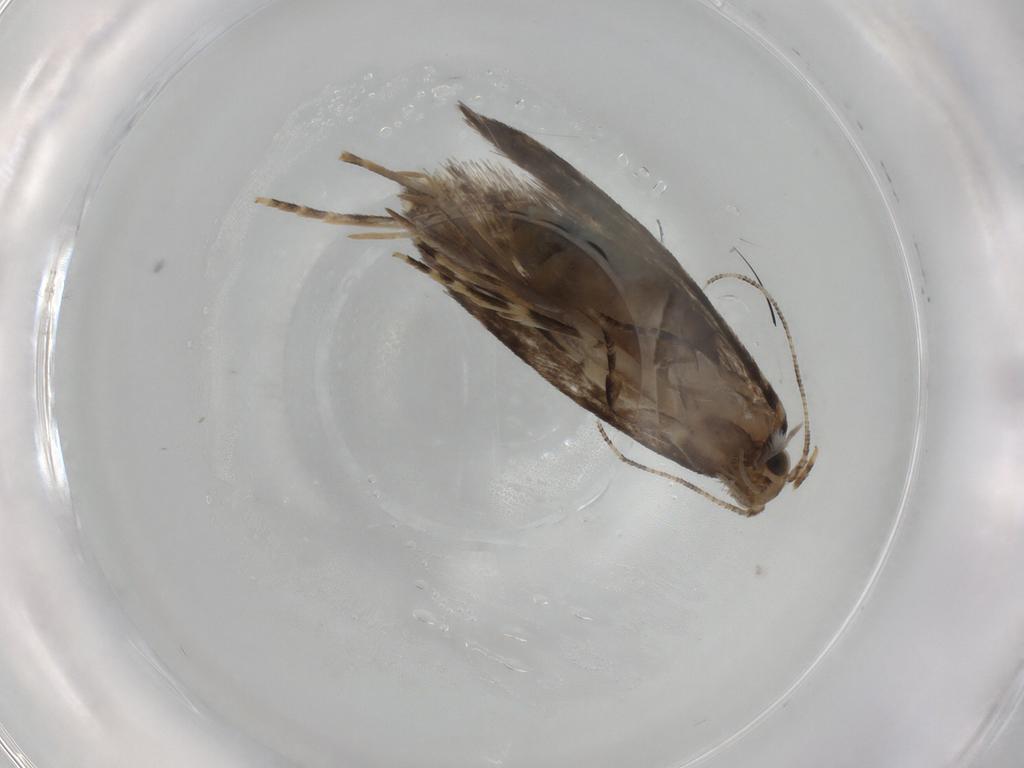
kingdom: Animalia
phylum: Arthropoda
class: Insecta
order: Lepidoptera
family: Tineidae
